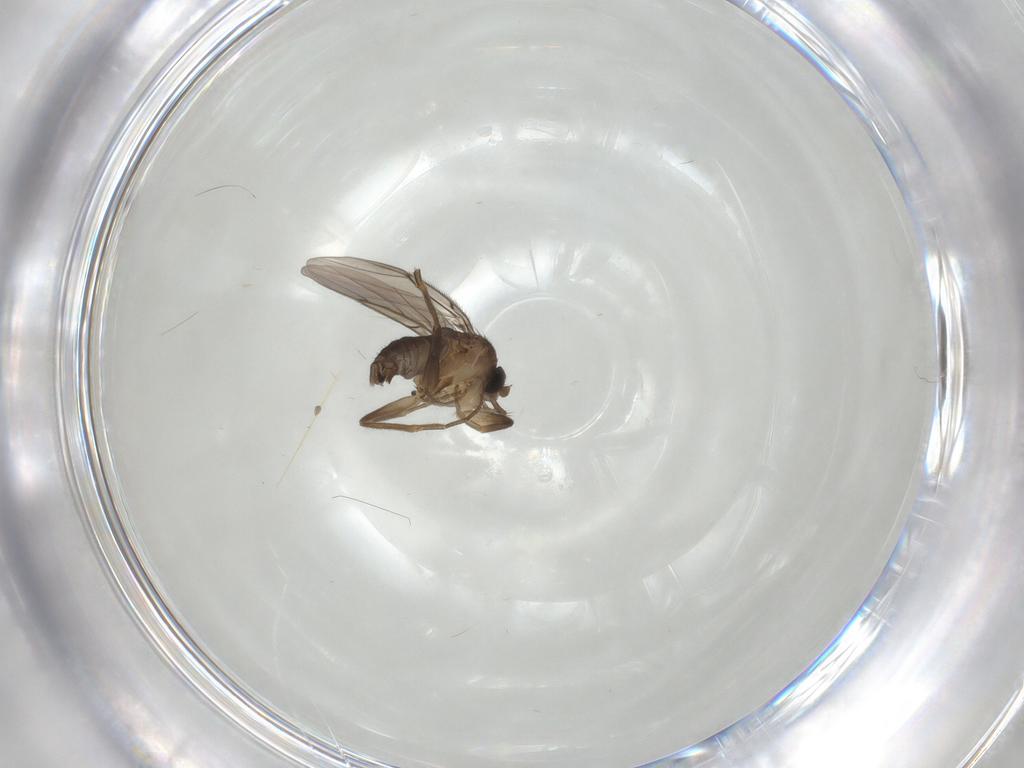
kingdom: Animalia
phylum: Arthropoda
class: Insecta
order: Diptera
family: Phoridae
